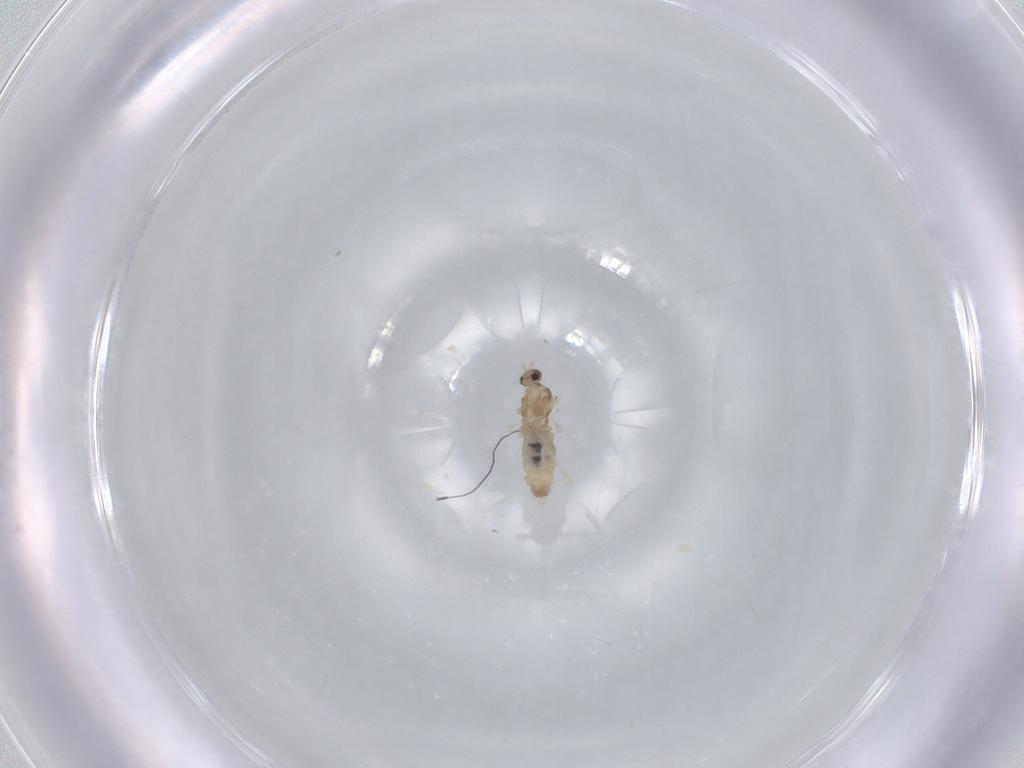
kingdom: Animalia
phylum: Arthropoda
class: Insecta
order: Diptera
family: Cecidomyiidae
